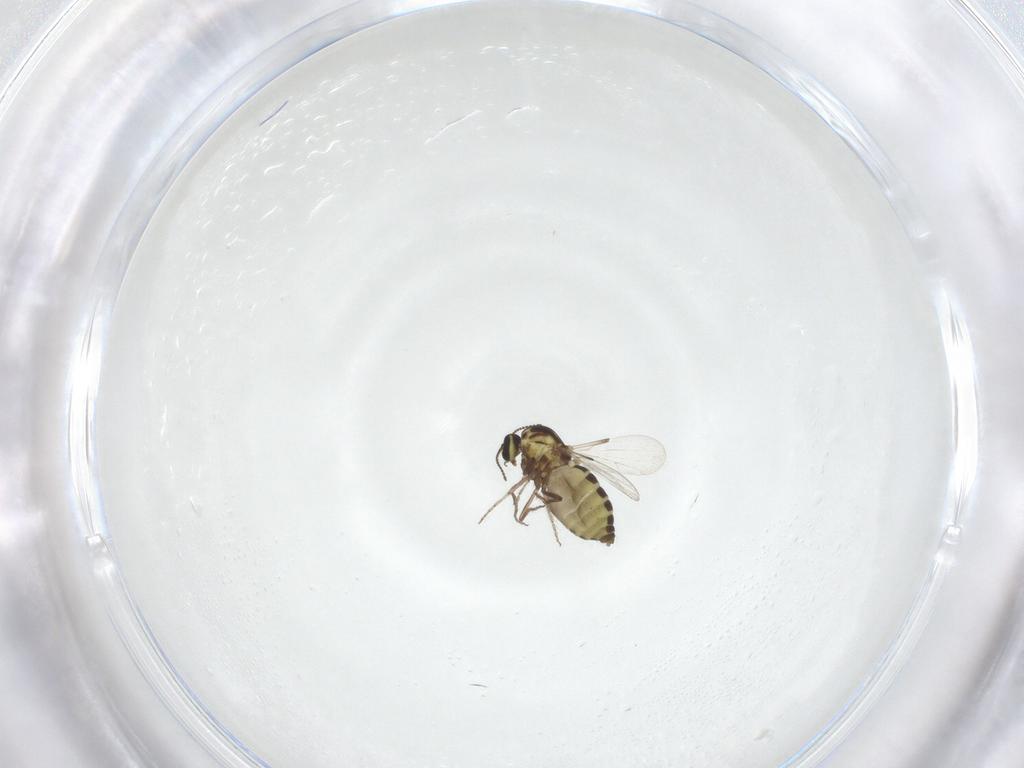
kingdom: Animalia
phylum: Arthropoda
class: Insecta
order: Diptera
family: Ceratopogonidae
